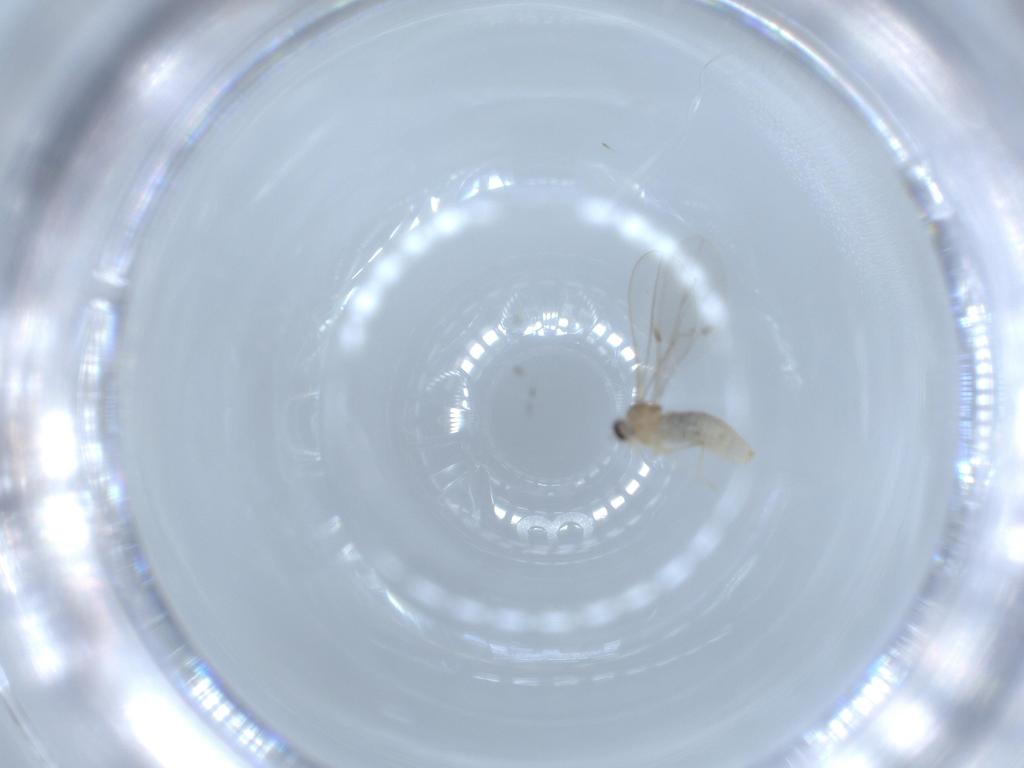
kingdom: Animalia
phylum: Arthropoda
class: Insecta
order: Diptera
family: Cecidomyiidae
